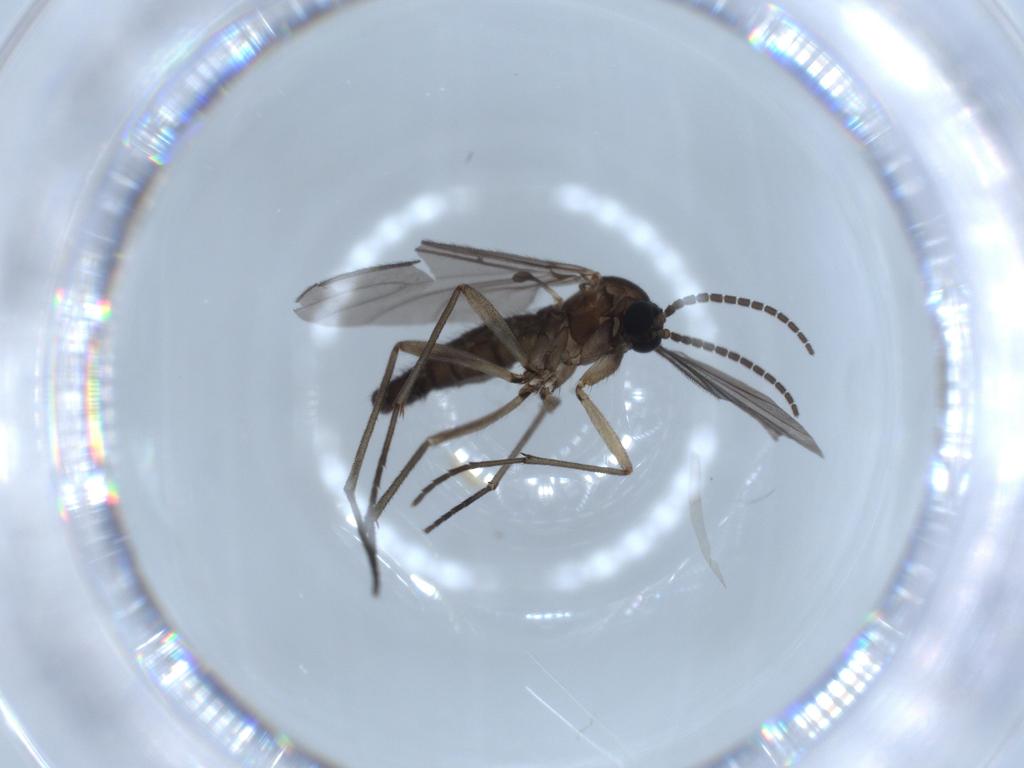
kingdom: Animalia
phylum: Arthropoda
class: Insecta
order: Diptera
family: Sciaridae
